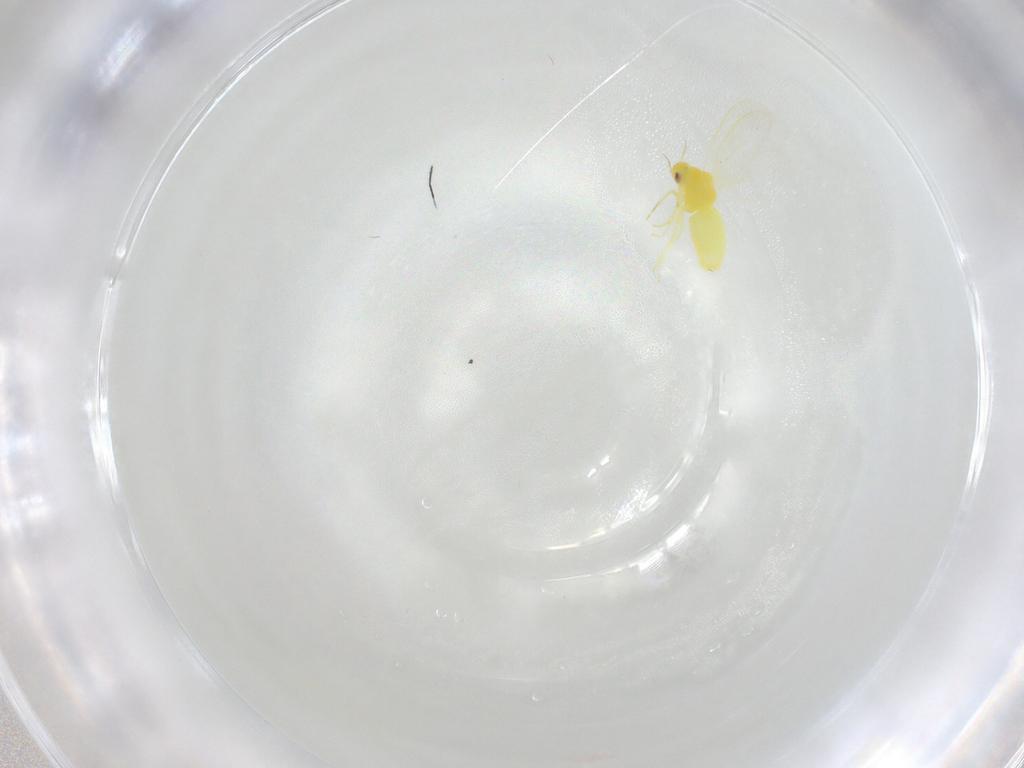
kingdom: Animalia
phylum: Arthropoda
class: Insecta
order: Hemiptera
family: Aleyrodidae
